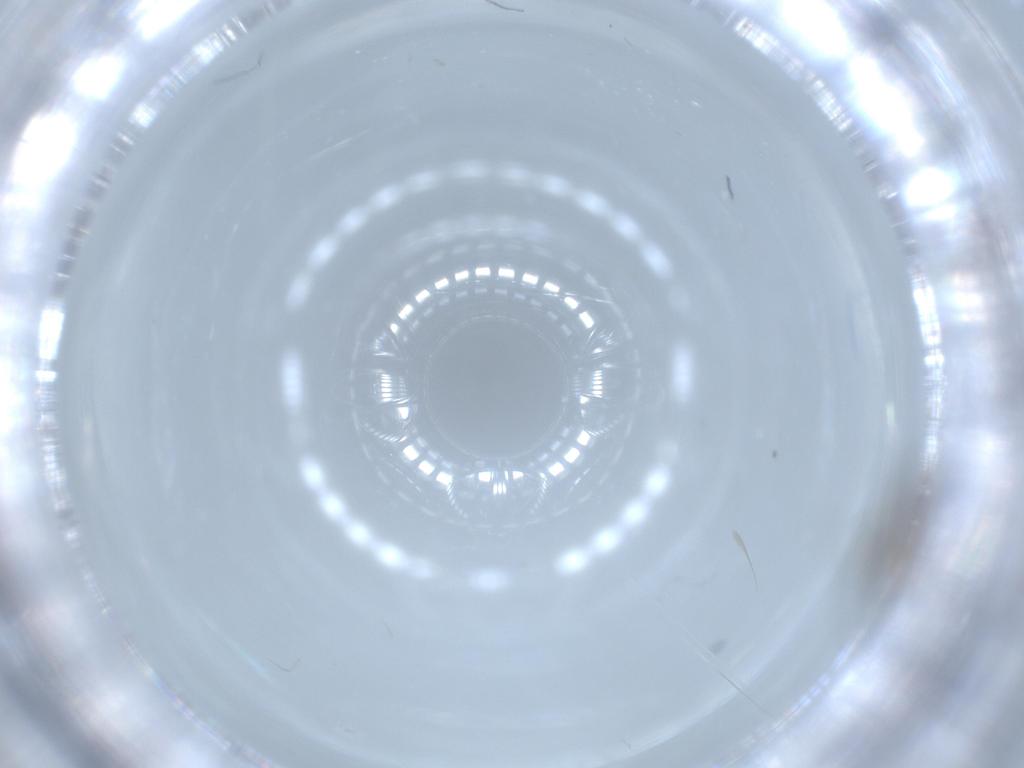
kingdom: Animalia
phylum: Arthropoda
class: Insecta
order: Diptera
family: Sciaridae
